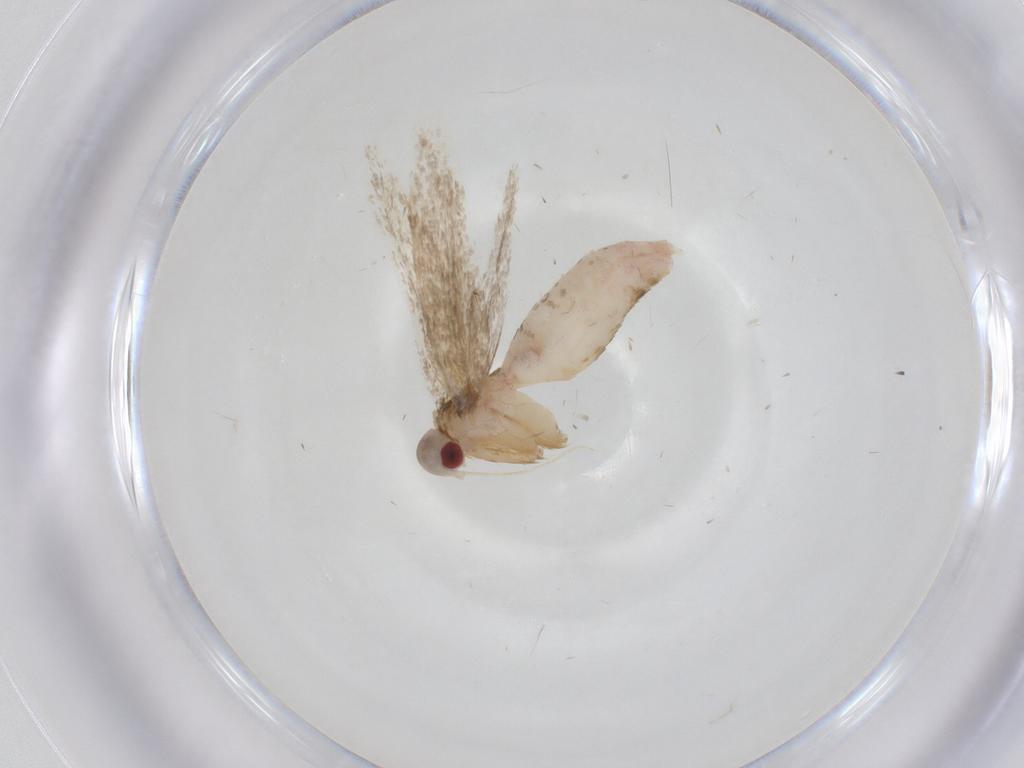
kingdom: Animalia
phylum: Arthropoda
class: Insecta
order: Lepidoptera
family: Cosmopterigidae
